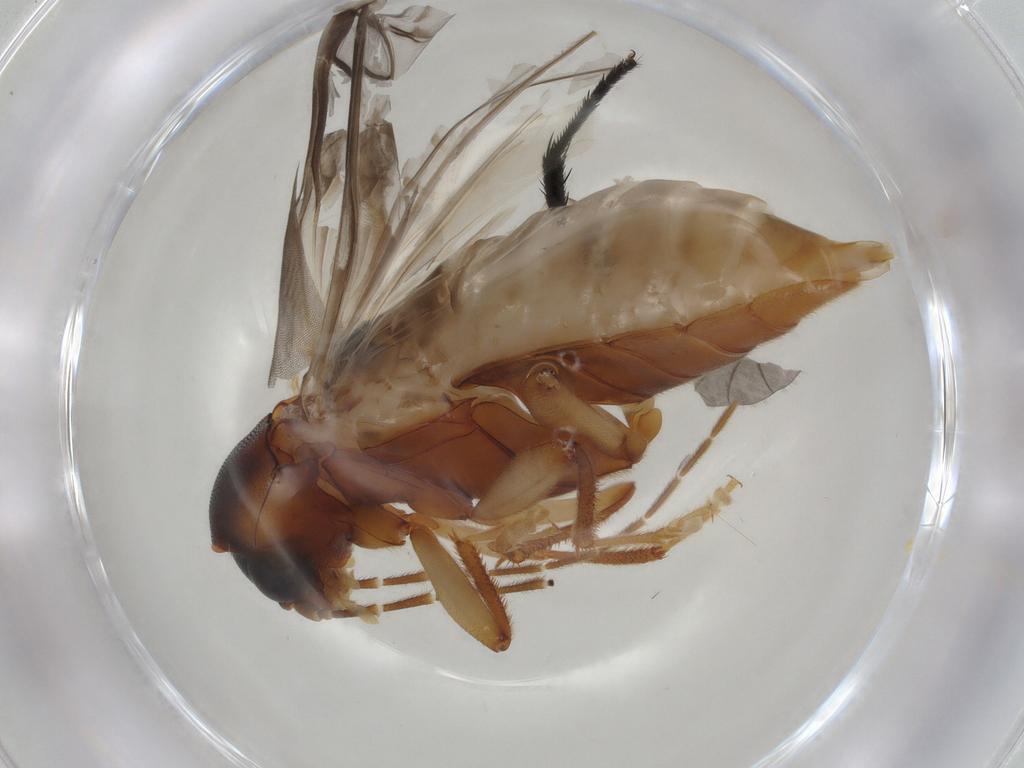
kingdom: Animalia
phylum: Arthropoda
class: Insecta
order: Coleoptera
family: Ptilodactylidae
